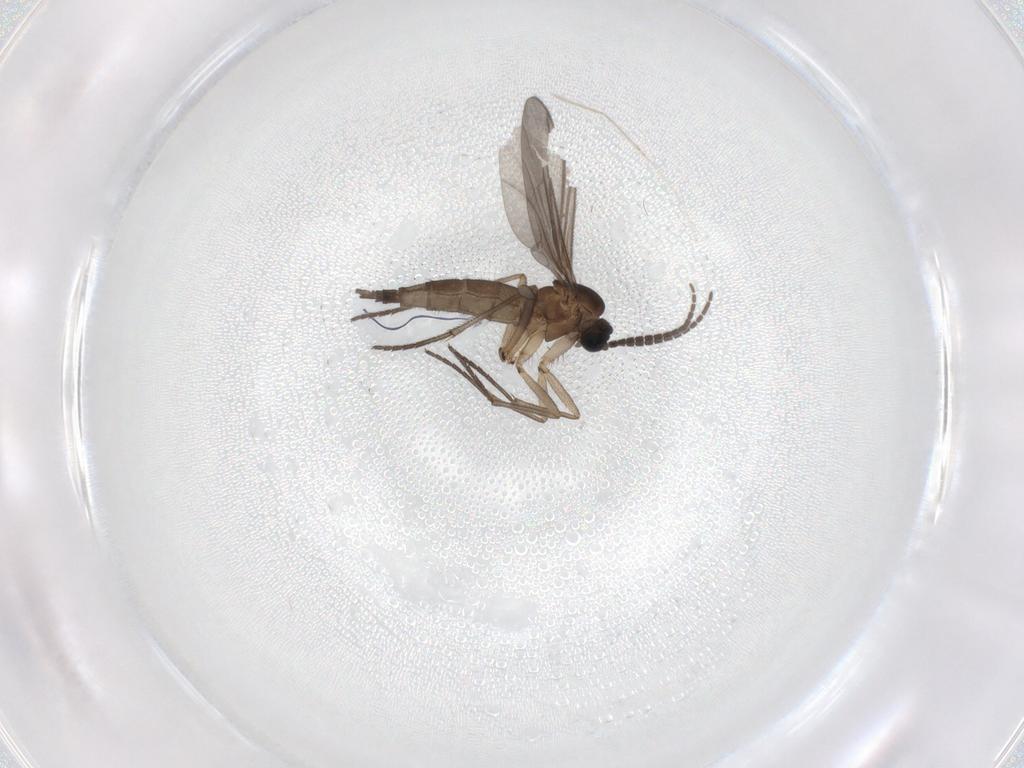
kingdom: Animalia
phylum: Arthropoda
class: Insecta
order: Diptera
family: Sciaridae
